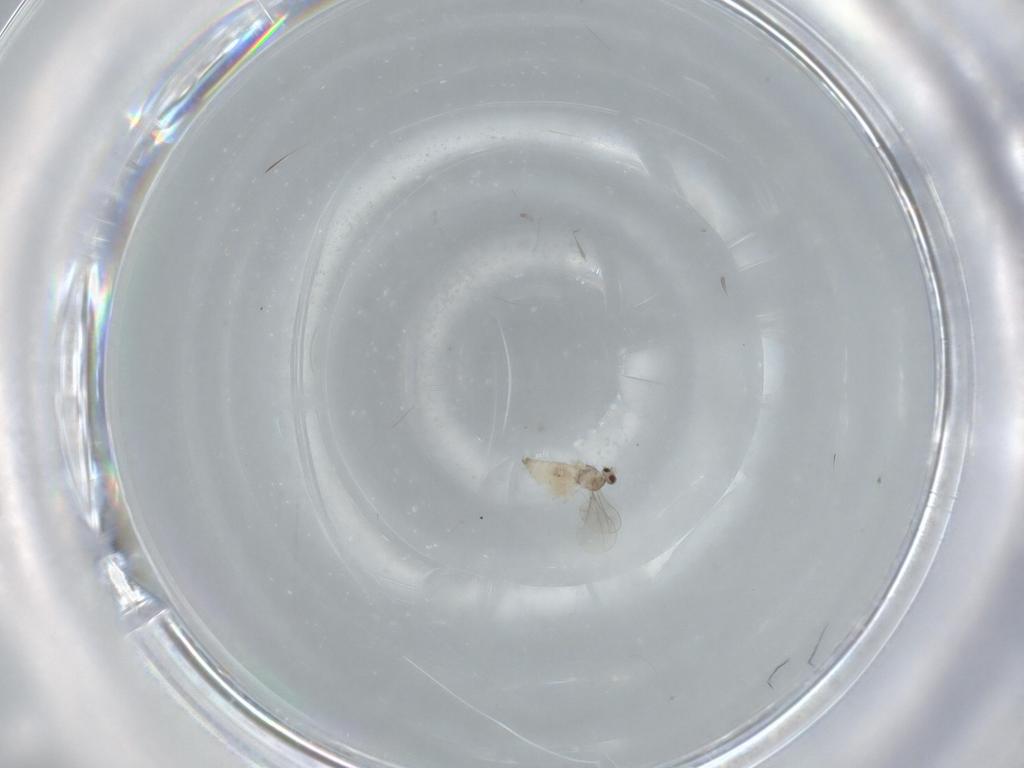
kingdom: Animalia
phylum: Arthropoda
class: Insecta
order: Diptera
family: Cecidomyiidae
